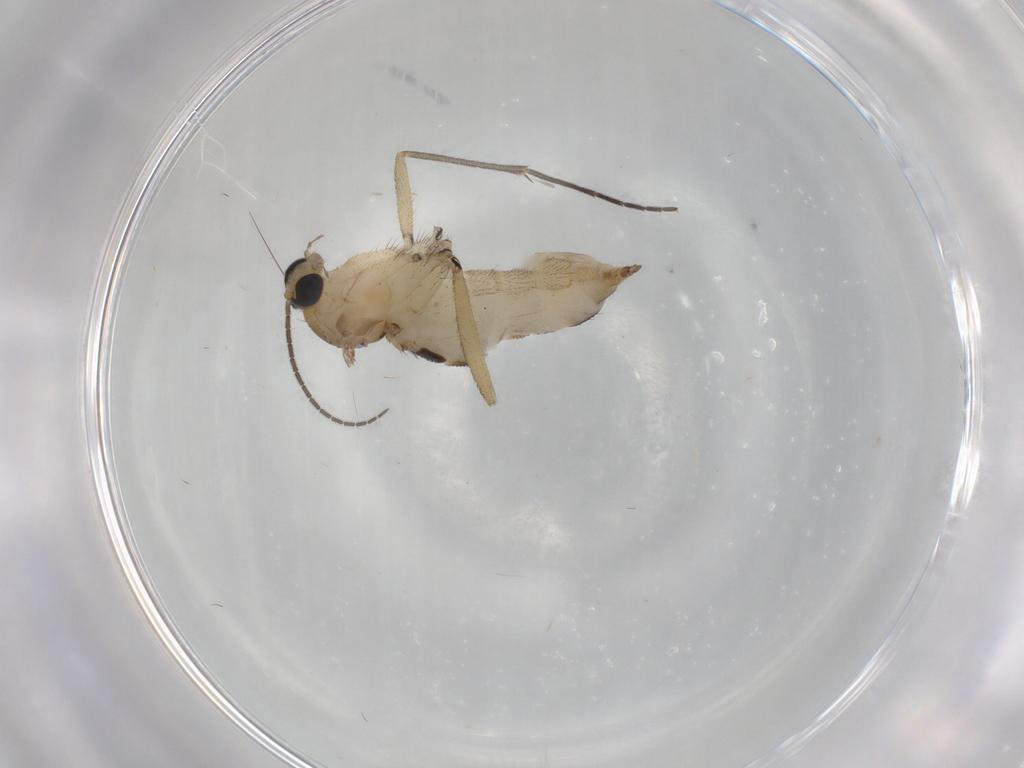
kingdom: Animalia
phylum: Arthropoda
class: Insecta
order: Diptera
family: Sciaridae
